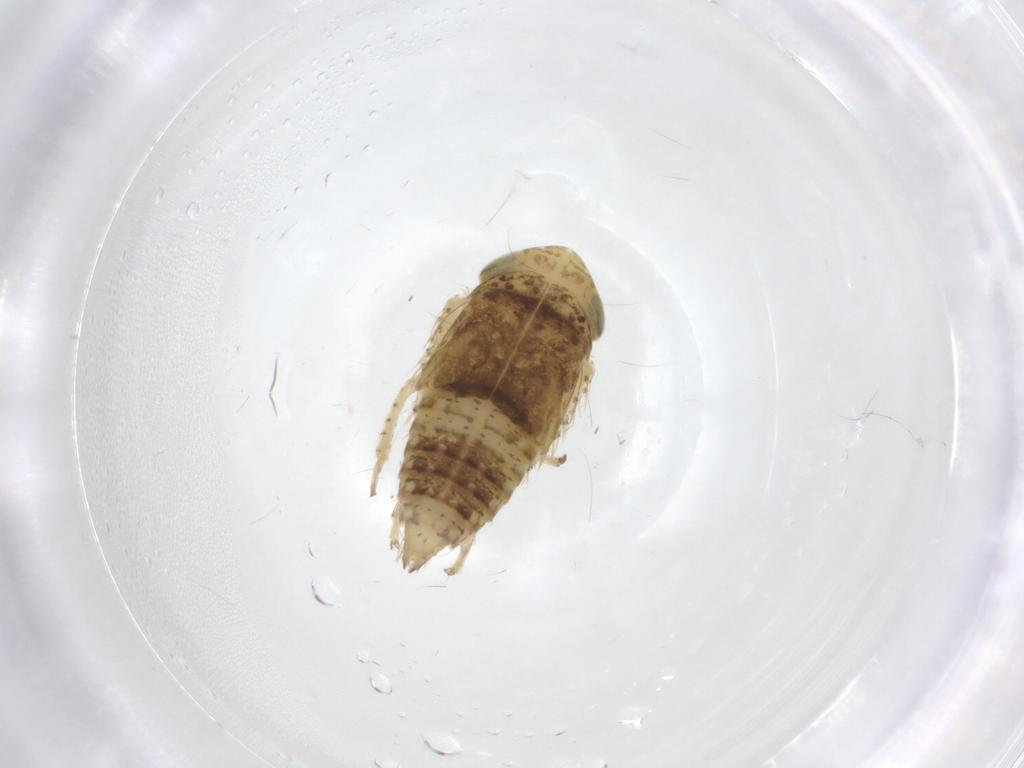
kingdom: Animalia
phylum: Arthropoda
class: Insecta
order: Hemiptera
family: Cicadellidae
